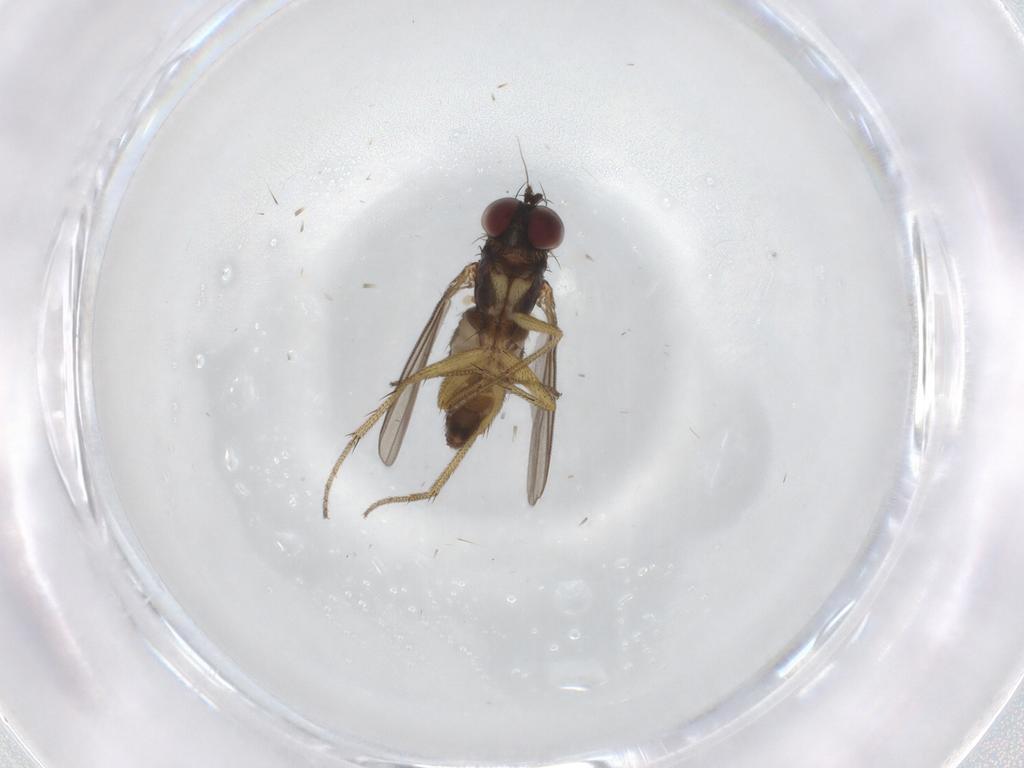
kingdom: Animalia
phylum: Arthropoda
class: Insecta
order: Diptera
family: Dolichopodidae
